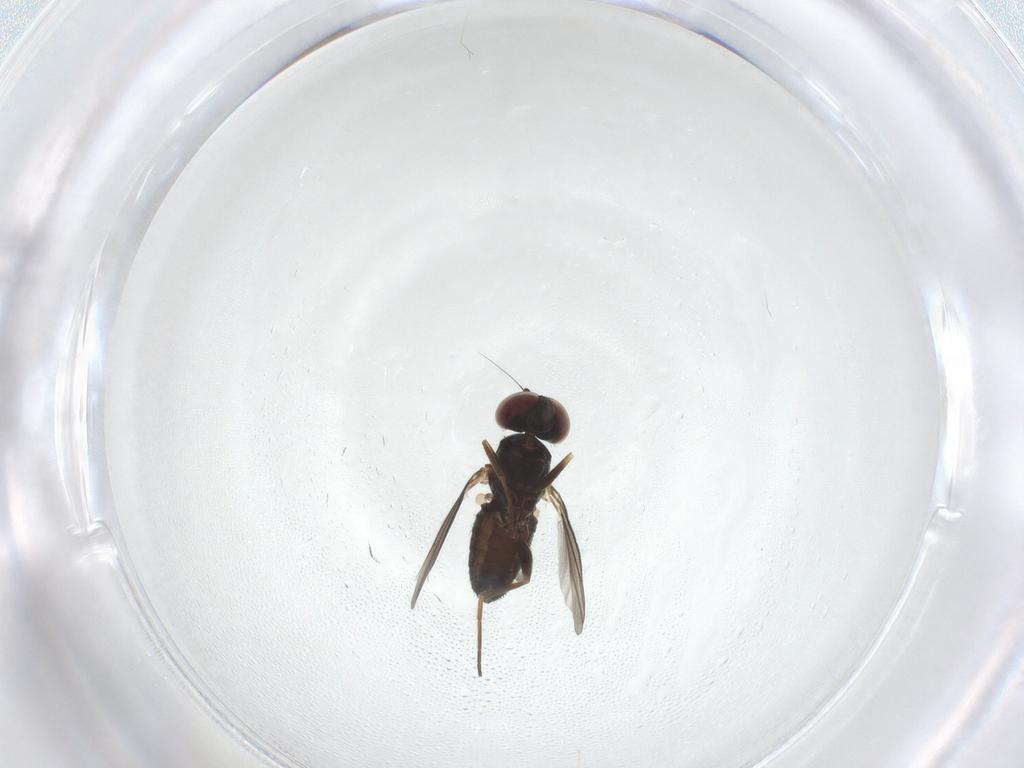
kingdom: Animalia
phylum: Arthropoda
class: Insecta
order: Diptera
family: Dolichopodidae
